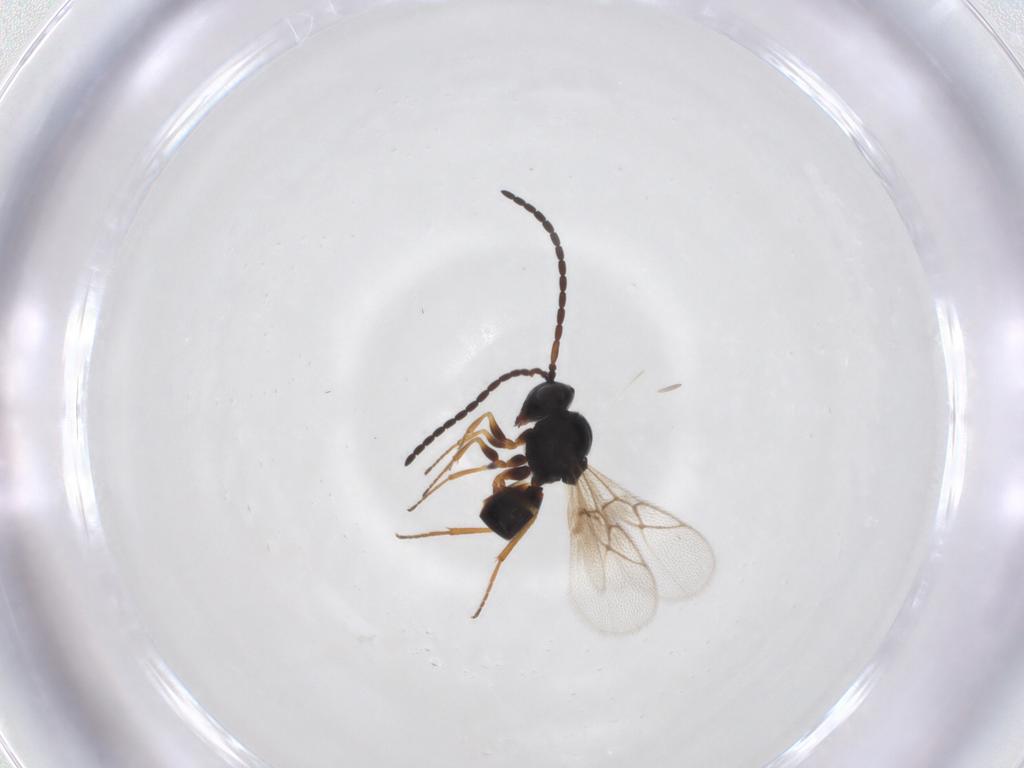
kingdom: Animalia
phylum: Arthropoda
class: Insecta
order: Hymenoptera
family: Figitidae
